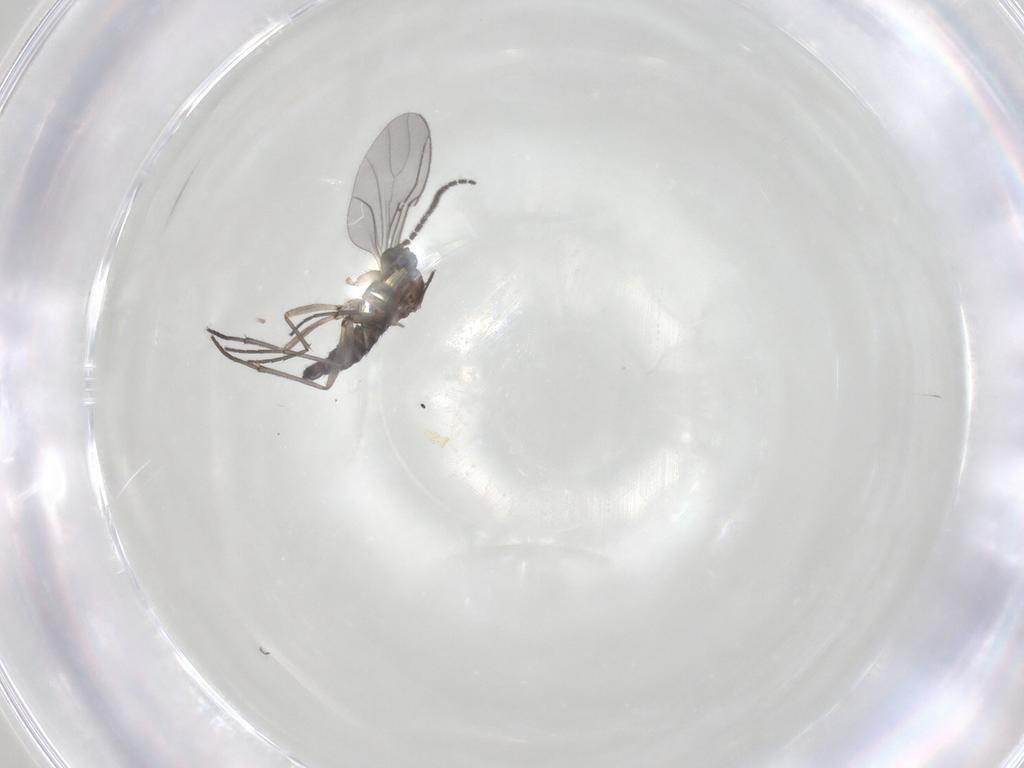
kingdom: Animalia
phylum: Arthropoda
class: Insecta
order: Diptera
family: Sciaridae
